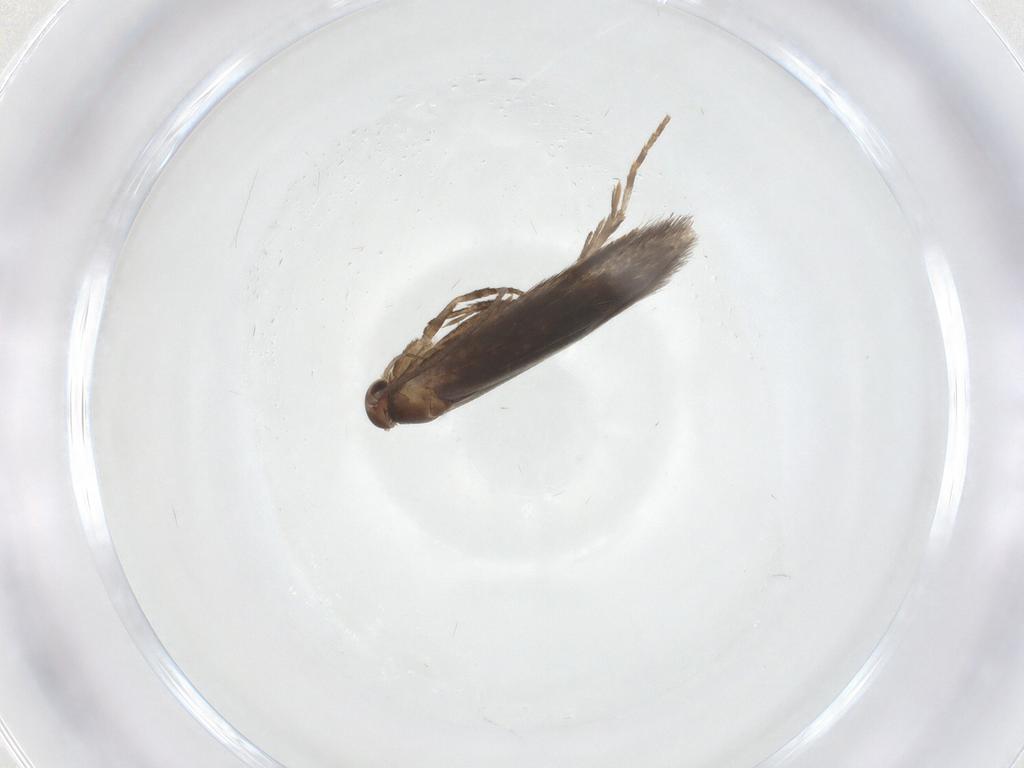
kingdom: Animalia
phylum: Arthropoda
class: Insecta
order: Lepidoptera
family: Elachistidae
